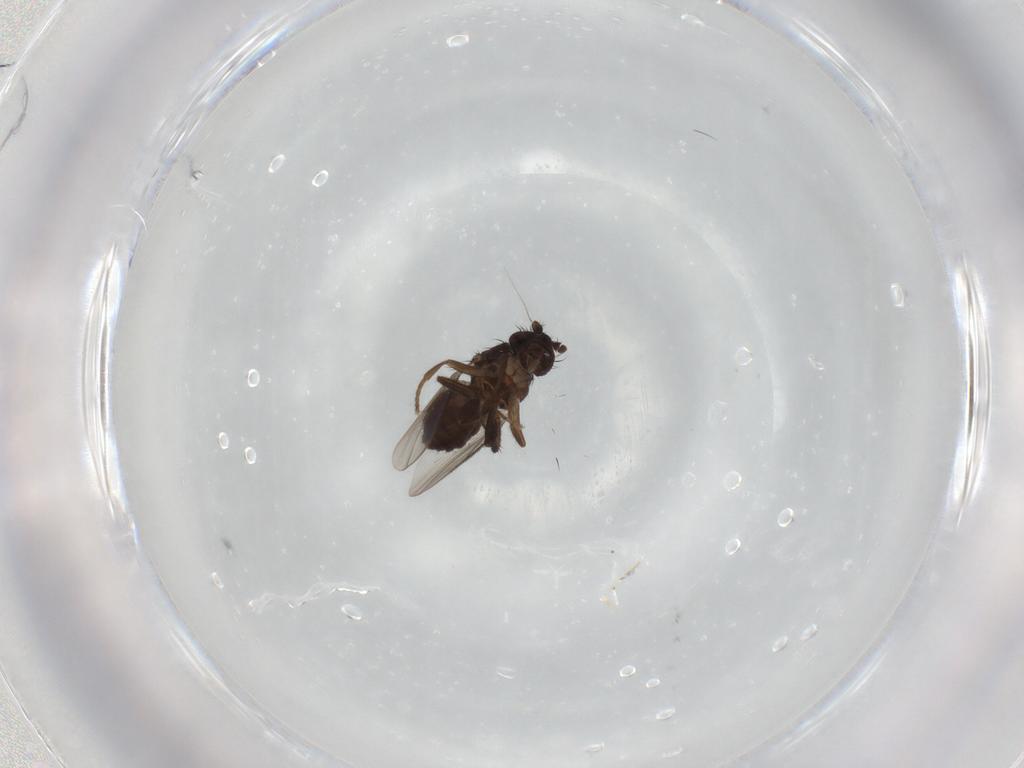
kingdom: Animalia
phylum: Arthropoda
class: Insecta
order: Diptera
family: Sphaeroceridae
